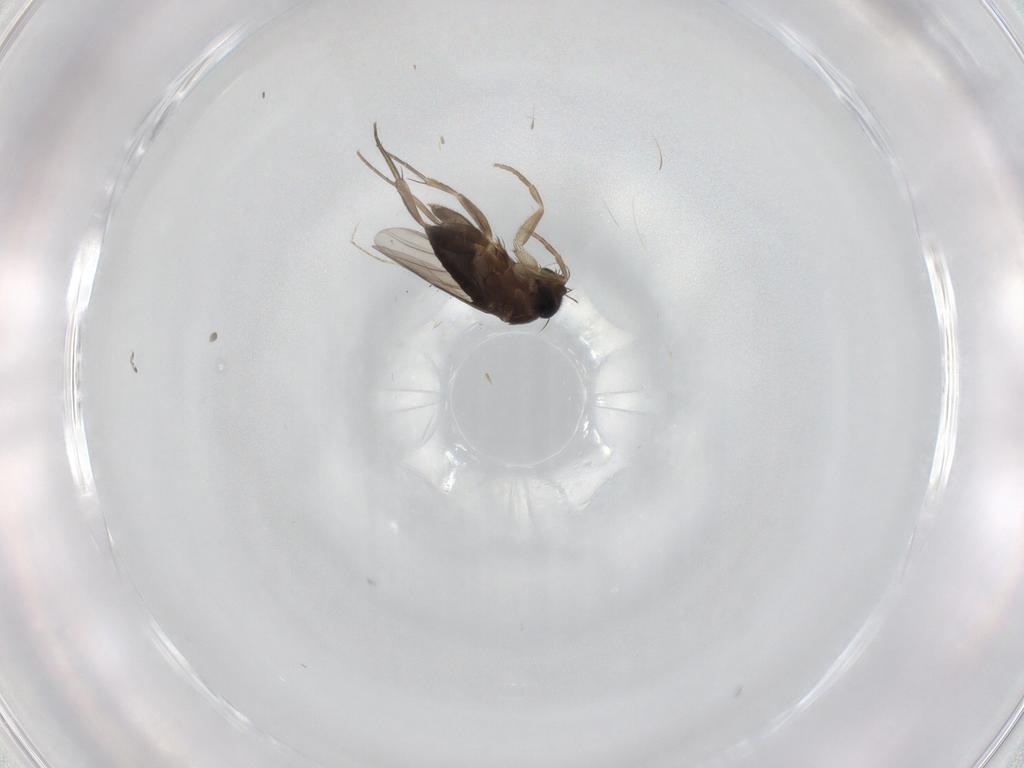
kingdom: Animalia
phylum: Arthropoda
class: Insecta
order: Diptera
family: Phoridae
